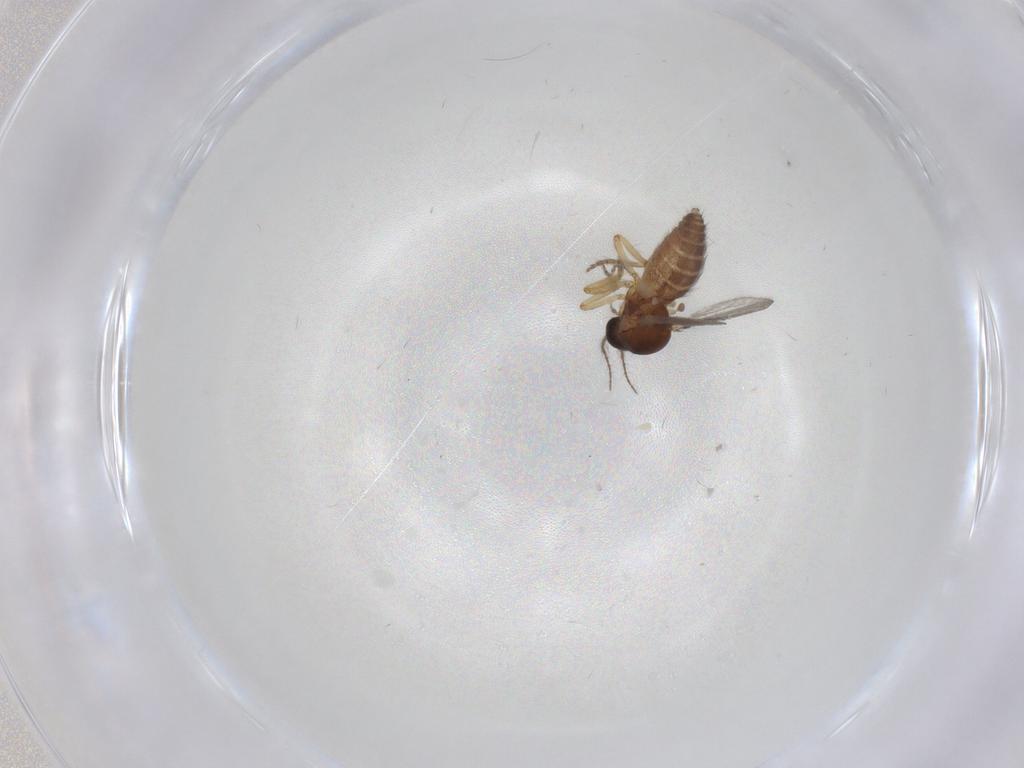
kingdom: Animalia
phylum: Arthropoda
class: Insecta
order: Diptera
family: Ceratopogonidae
